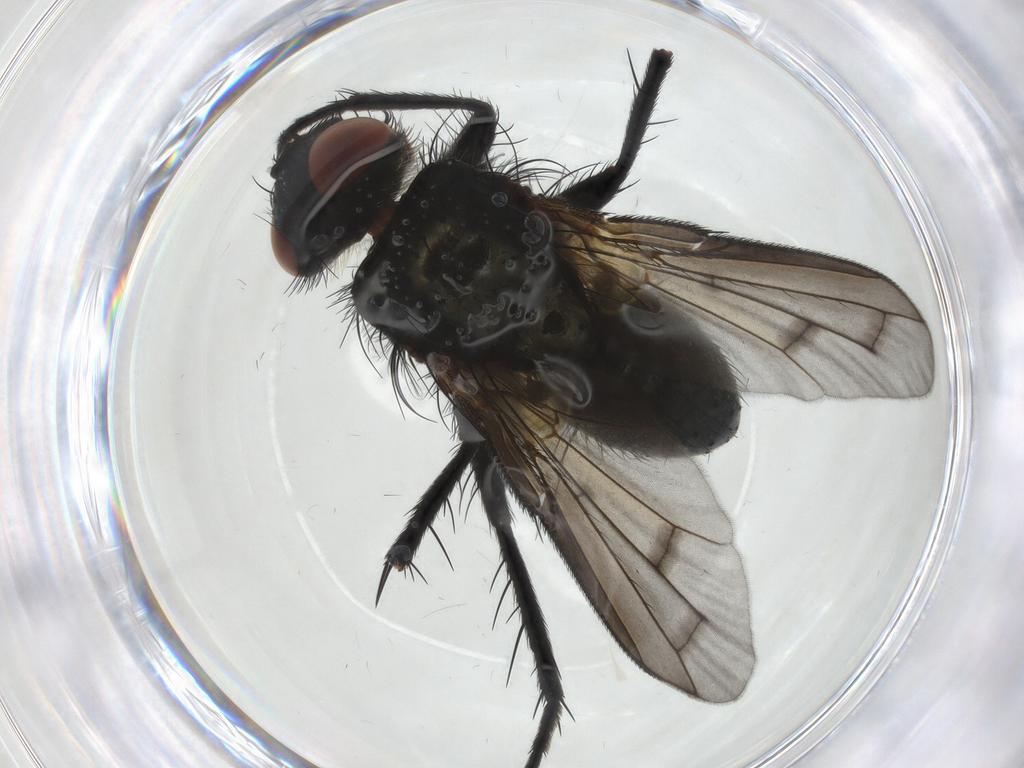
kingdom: Animalia
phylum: Arthropoda
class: Insecta
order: Diptera
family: Tachinidae
